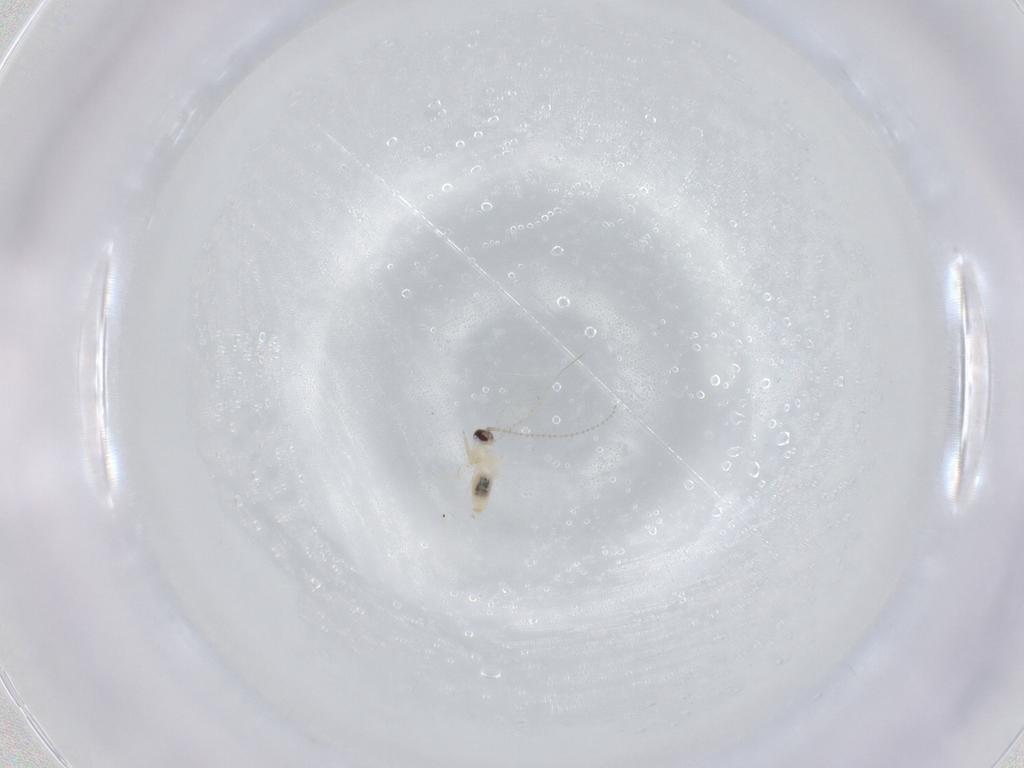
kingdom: Animalia
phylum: Arthropoda
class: Insecta
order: Diptera
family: Cecidomyiidae
